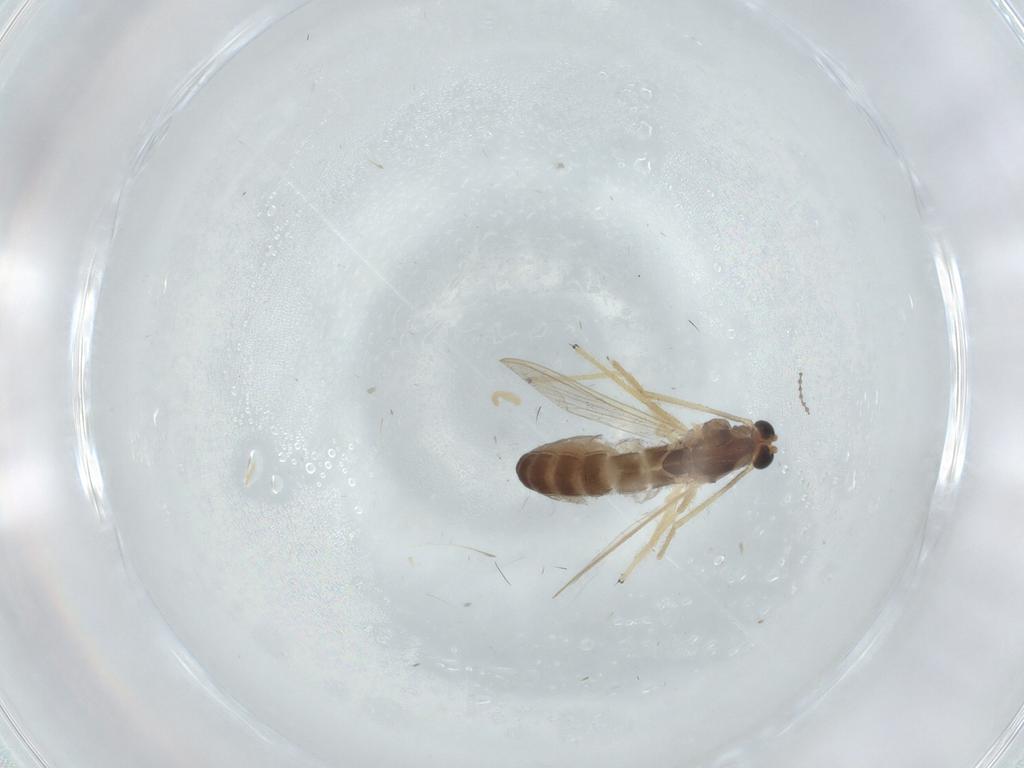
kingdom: Animalia
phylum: Arthropoda
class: Insecta
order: Diptera
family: Chironomidae
